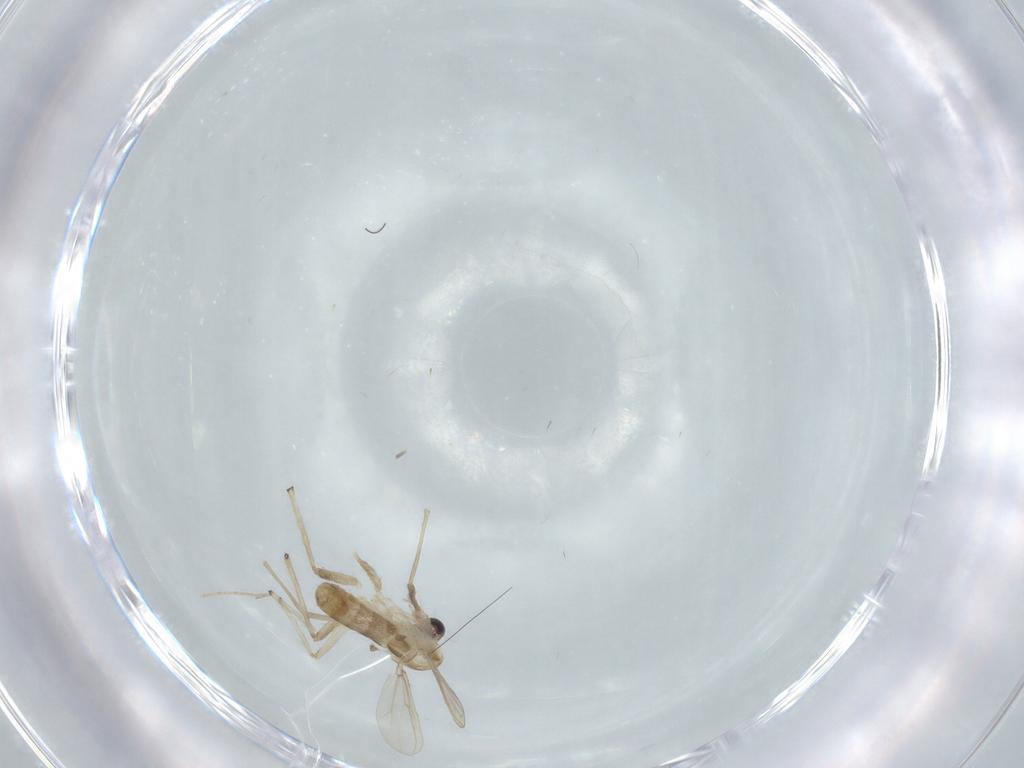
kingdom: Animalia
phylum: Arthropoda
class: Insecta
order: Diptera
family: Chironomidae
